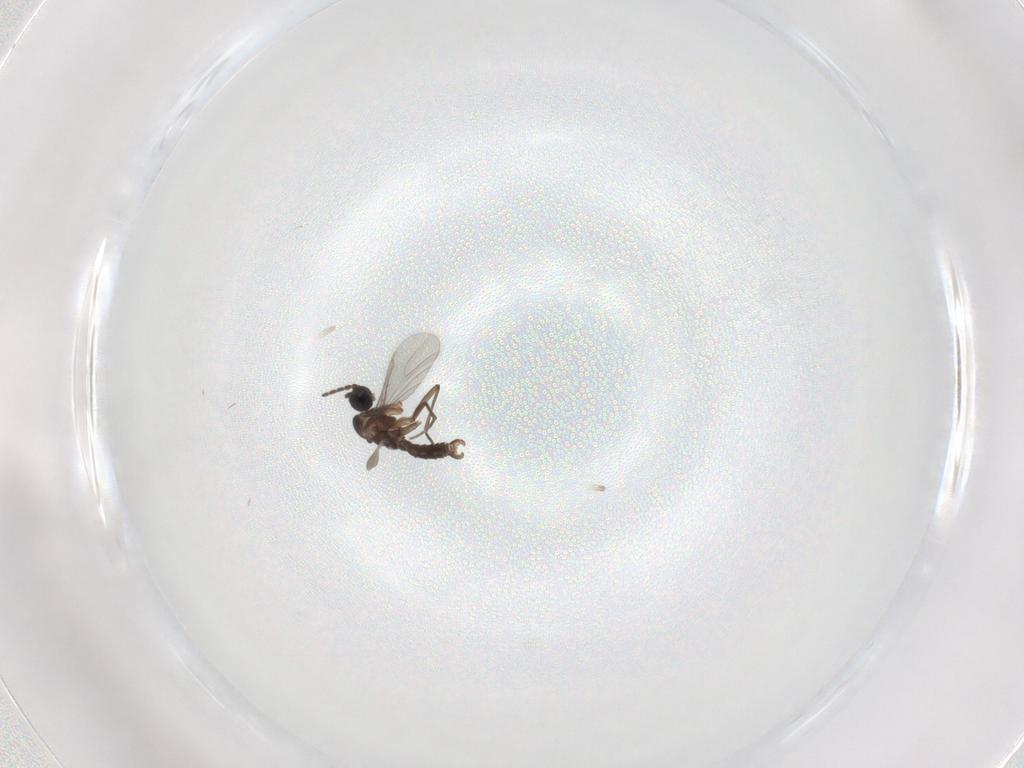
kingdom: Animalia
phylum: Arthropoda
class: Insecta
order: Diptera
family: Sciaridae
